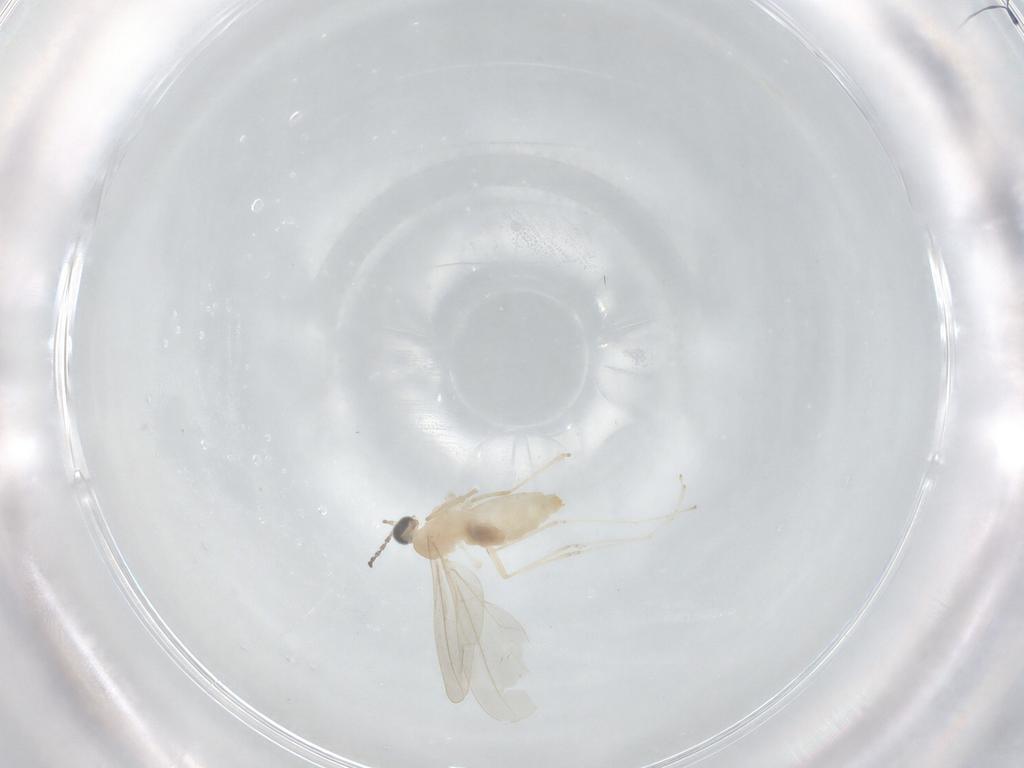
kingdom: Animalia
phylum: Arthropoda
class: Insecta
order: Diptera
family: Cecidomyiidae
